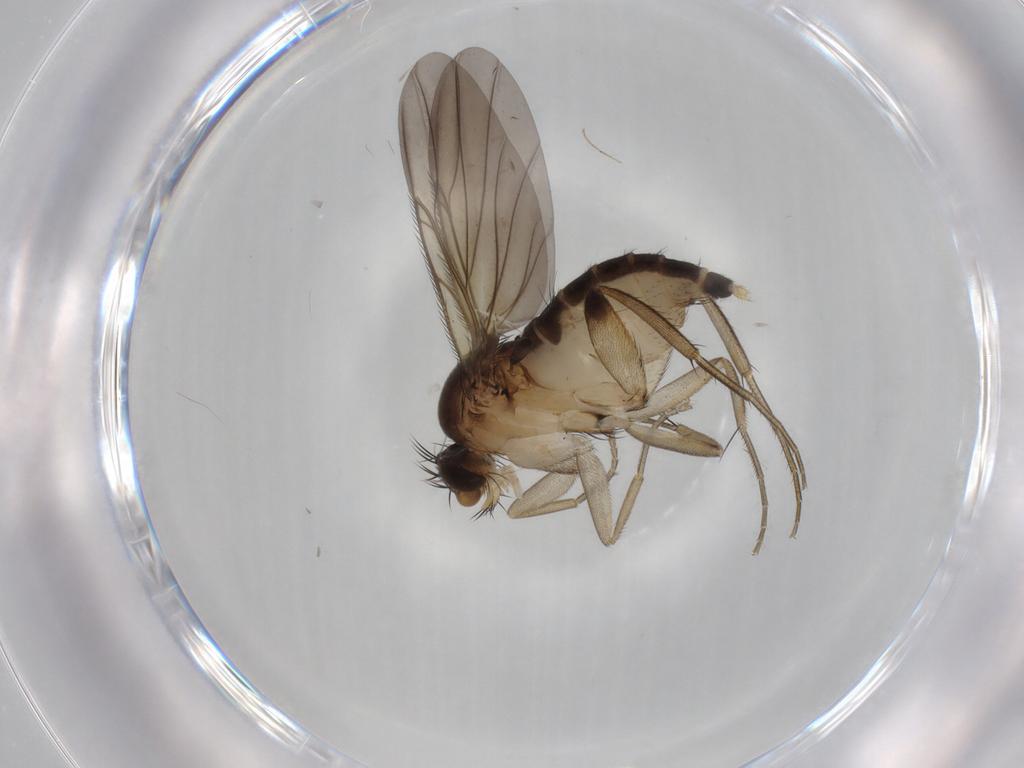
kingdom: Animalia
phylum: Arthropoda
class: Insecta
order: Diptera
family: Phoridae
